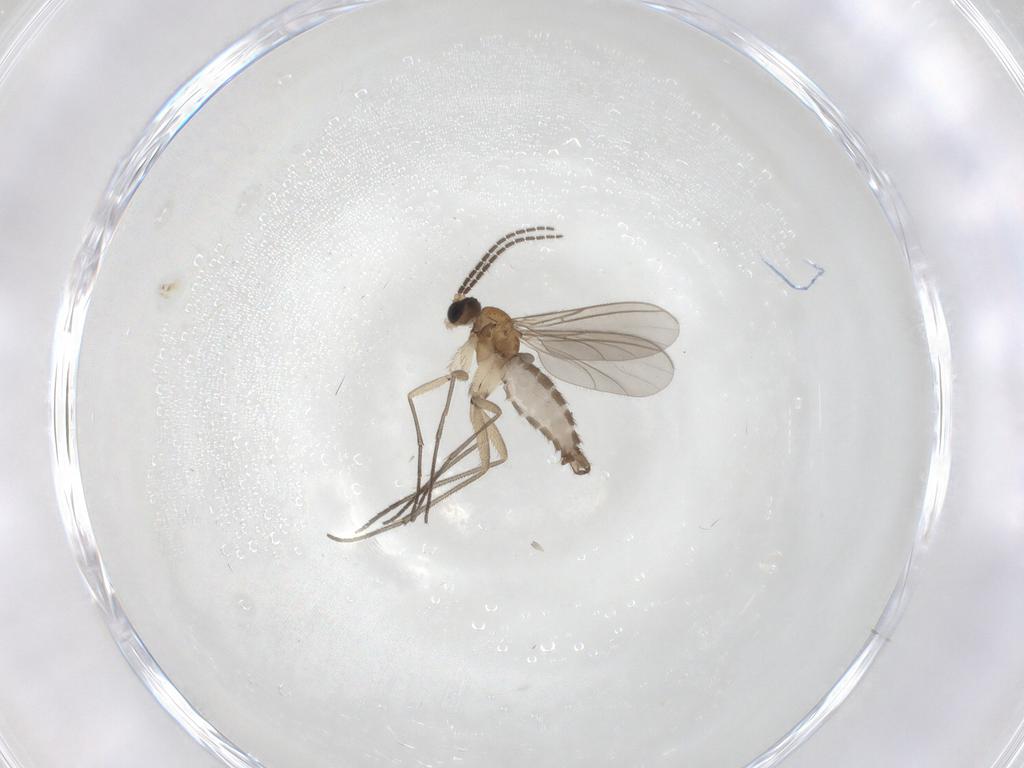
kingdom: Animalia
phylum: Arthropoda
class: Insecta
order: Diptera
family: Sciaridae
